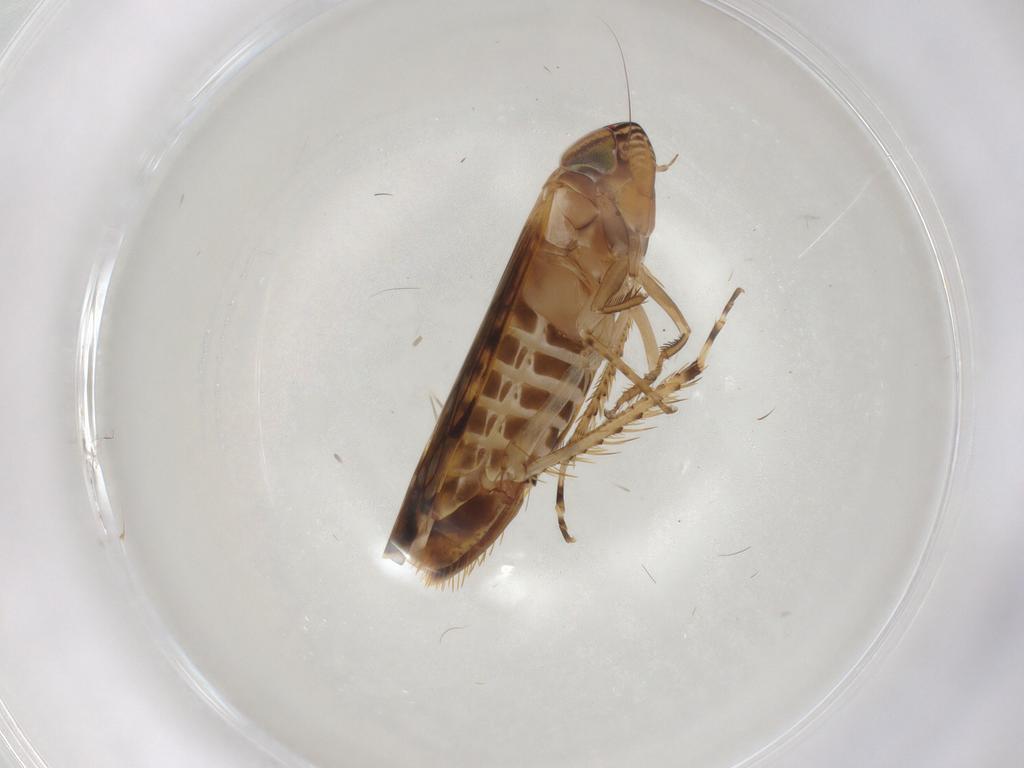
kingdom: Animalia
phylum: Arthropoda
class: Insecta
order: Hemiptera
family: Cicadellidae
